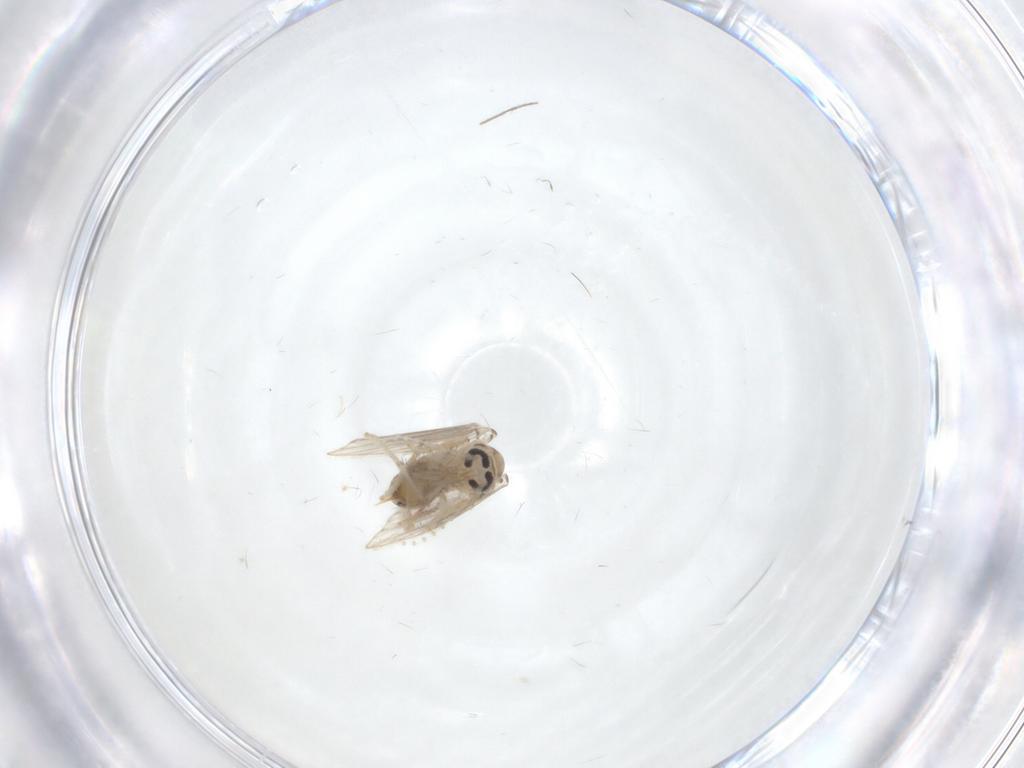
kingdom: Animalia
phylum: Arthropoda
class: Insecta
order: Diptera
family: Psychodidae
